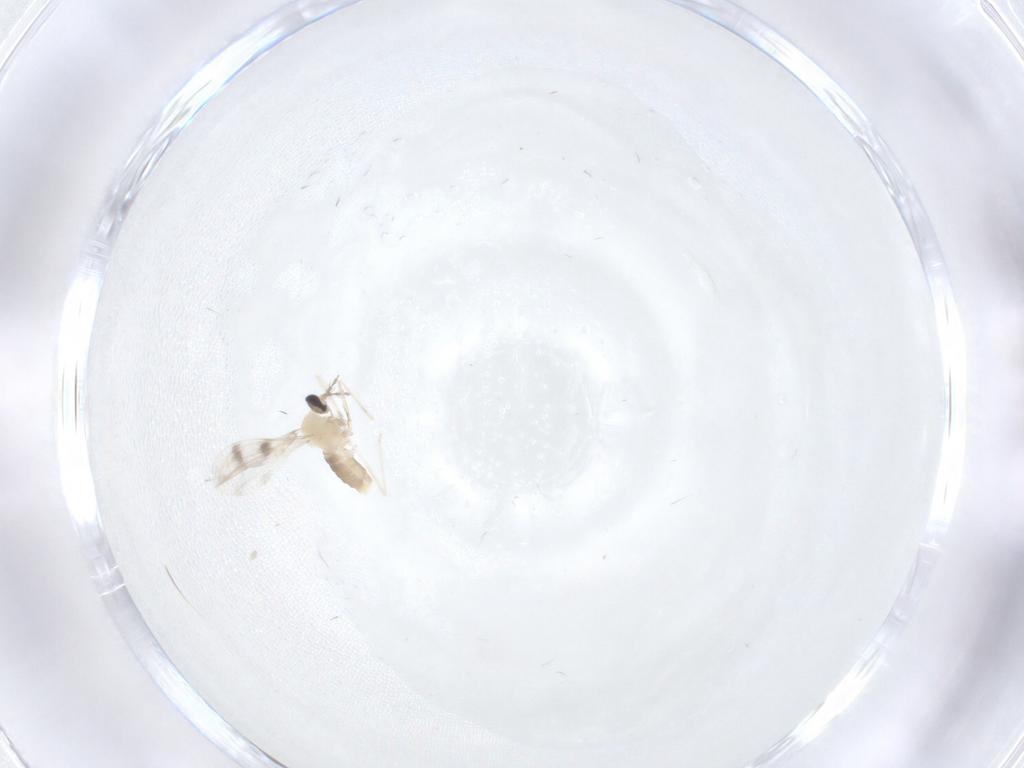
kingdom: Animalia
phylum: Arthropoda
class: Insecta
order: Diptera
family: Cecidomyiidae
